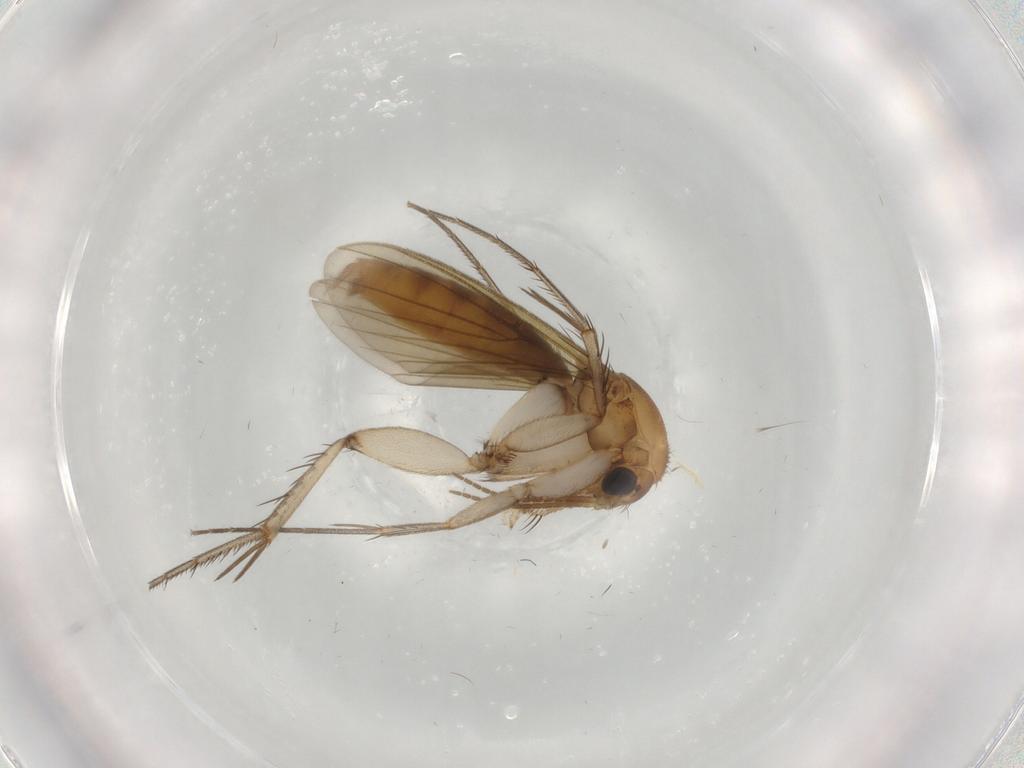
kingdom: Animalia
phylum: Arthropoda
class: Insecta
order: Diptera
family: Mycetophilidae
